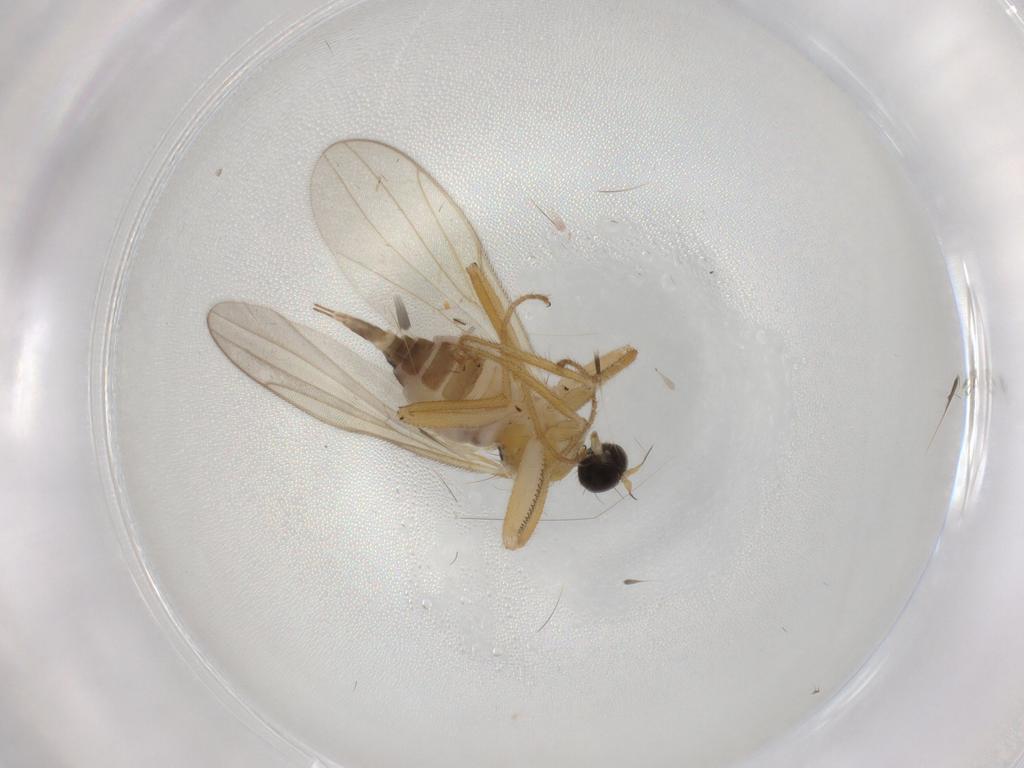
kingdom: Animalia
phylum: Arthropoda
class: Insecta
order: Diptera
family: Hybotidae
